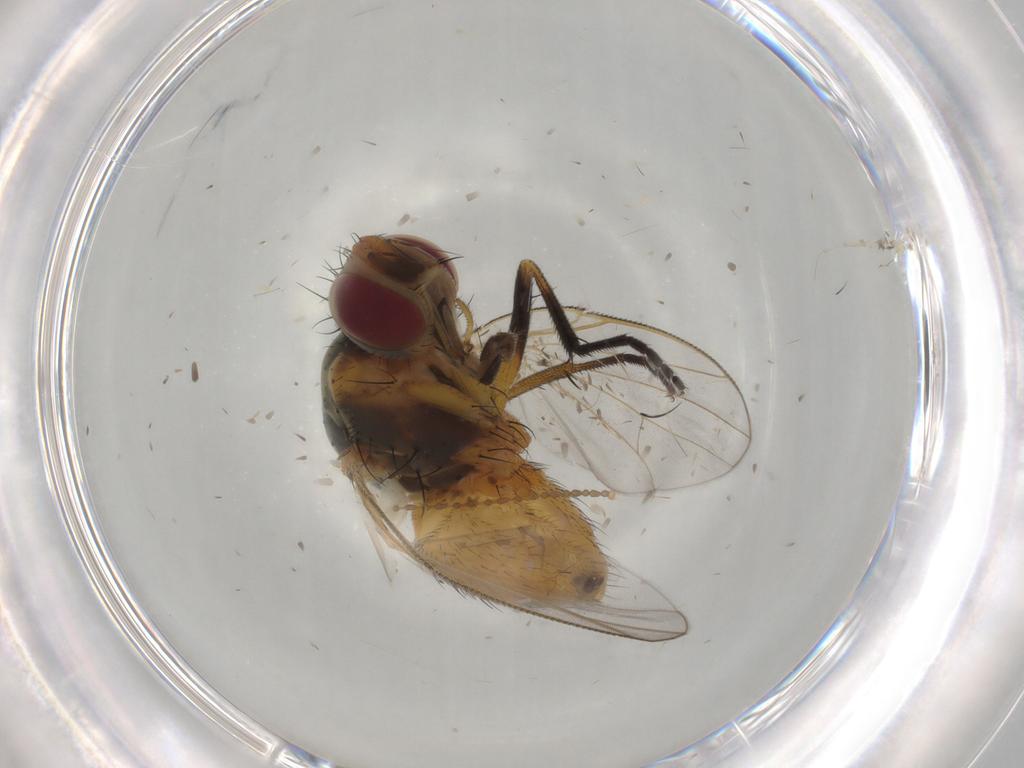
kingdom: Animalia
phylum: Arthropoda
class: Insecta
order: Diptera
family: Muscidae
